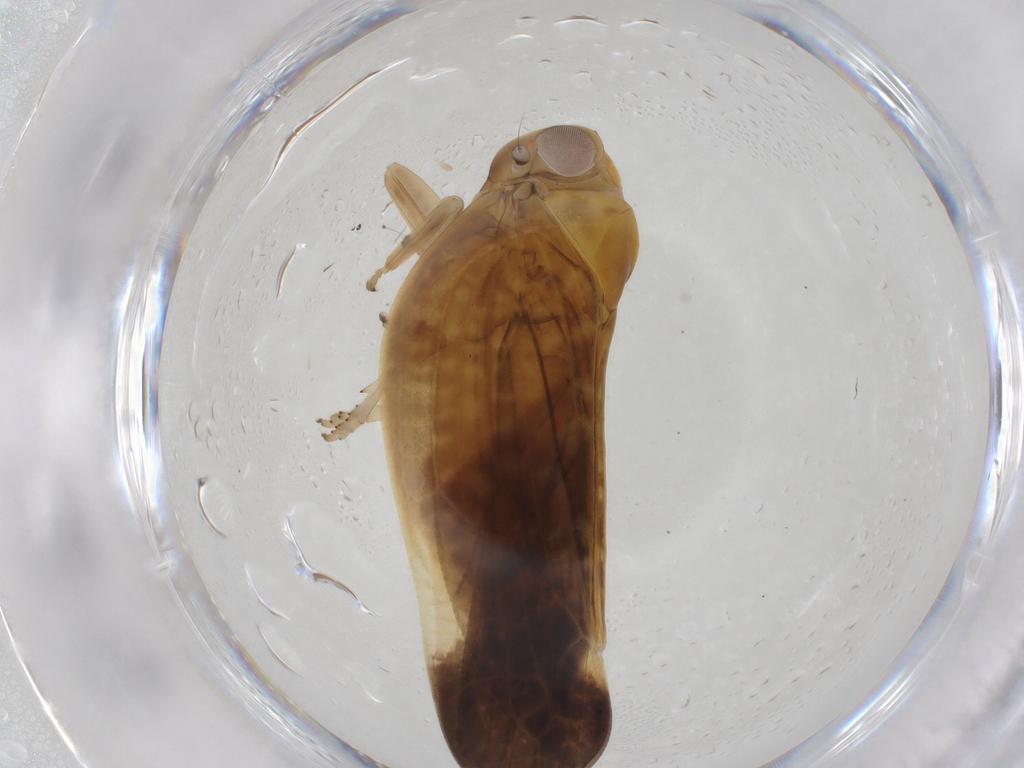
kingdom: Animalia
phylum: Arthropoda
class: Insecta
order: Hemiptera
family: Nogodinidae
